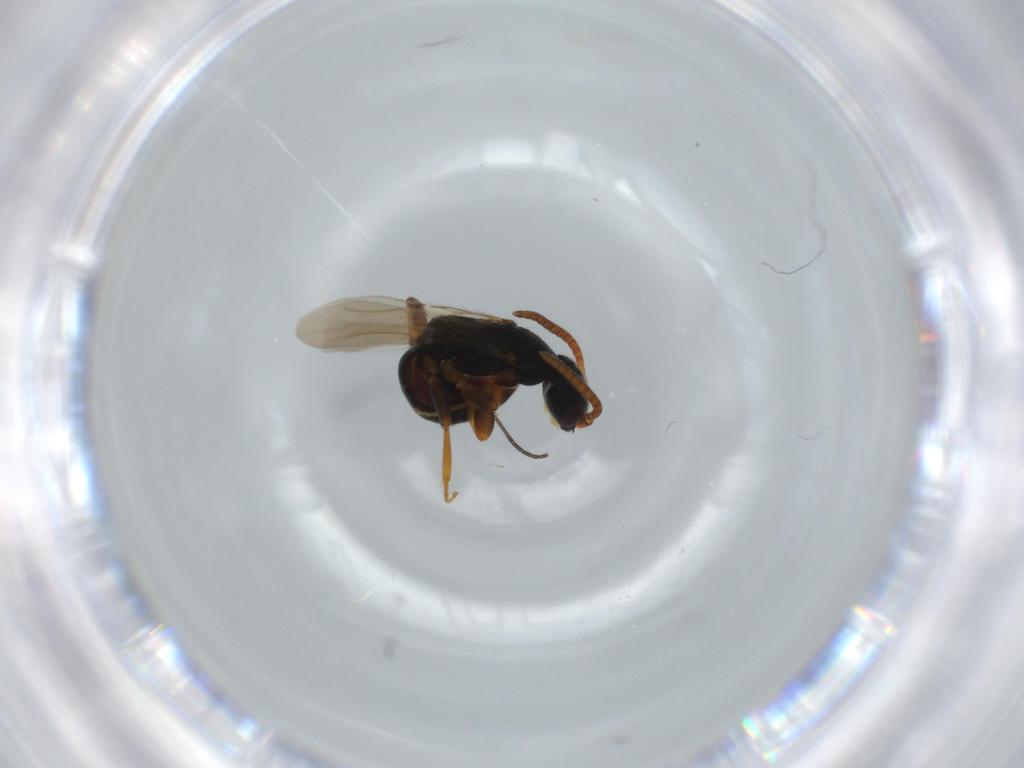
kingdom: Animalia
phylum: Arthropoda
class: Insecta
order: Hymenoptera
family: Bethylidae
